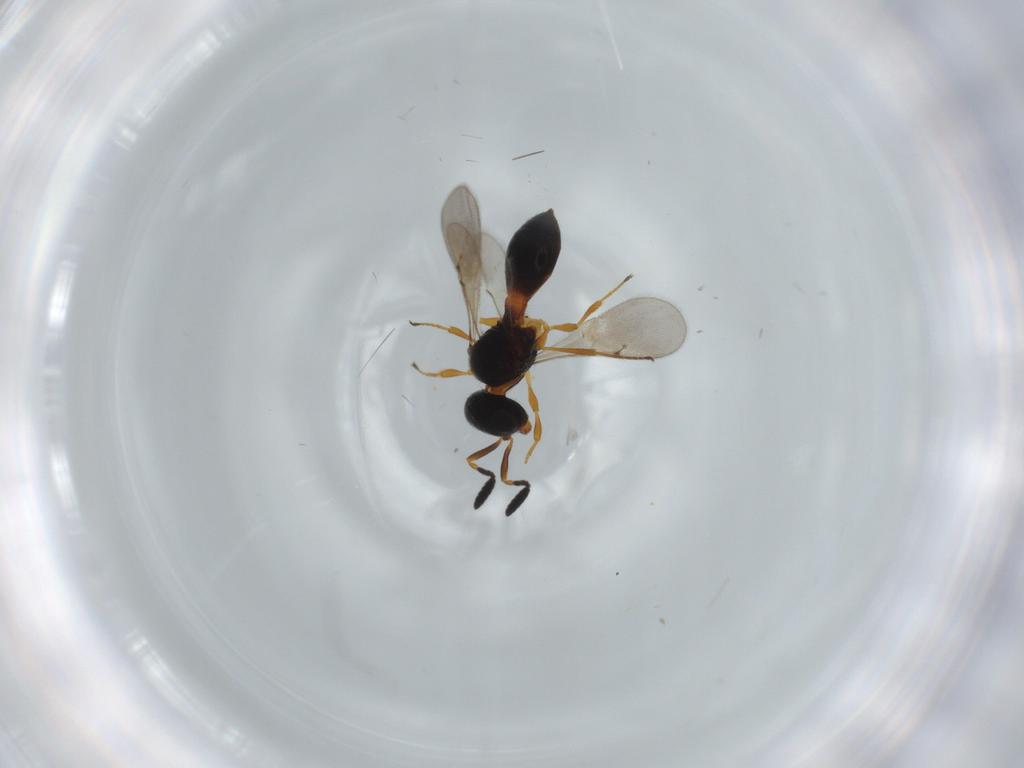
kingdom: Animalia
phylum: Arthropoda
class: Insecta
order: Hymenoptera
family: Scelionidae
